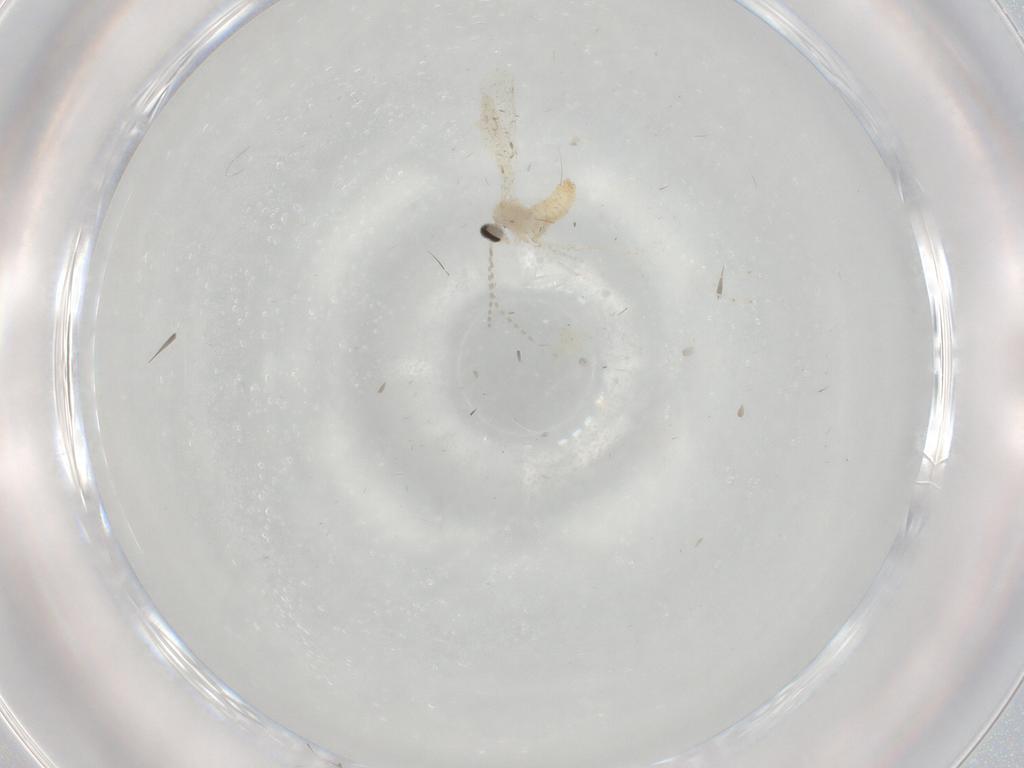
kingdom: Animalia
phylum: Arthropoda
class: Insecta
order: Diptera
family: Cecidomyiidae
